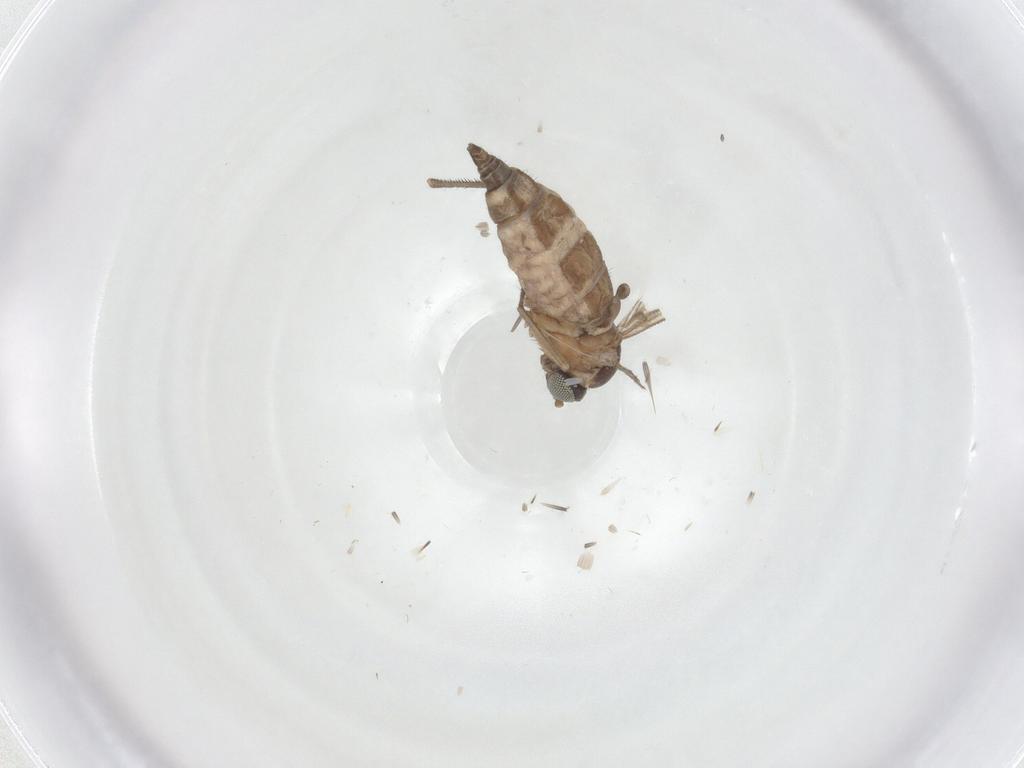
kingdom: Animalia
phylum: Arthropoda
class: Insecta
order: Diptera
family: Sciaridae
